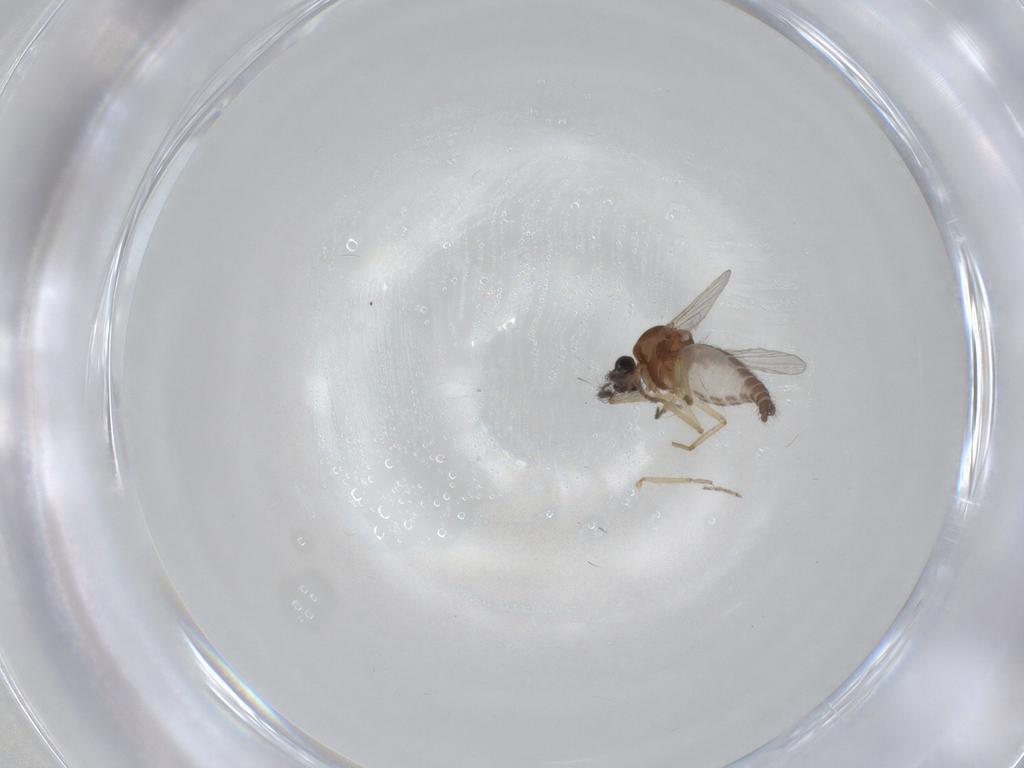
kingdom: Animalia
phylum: Arthropoda
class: Insecta
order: Diptera
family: Ceratopogonidae
